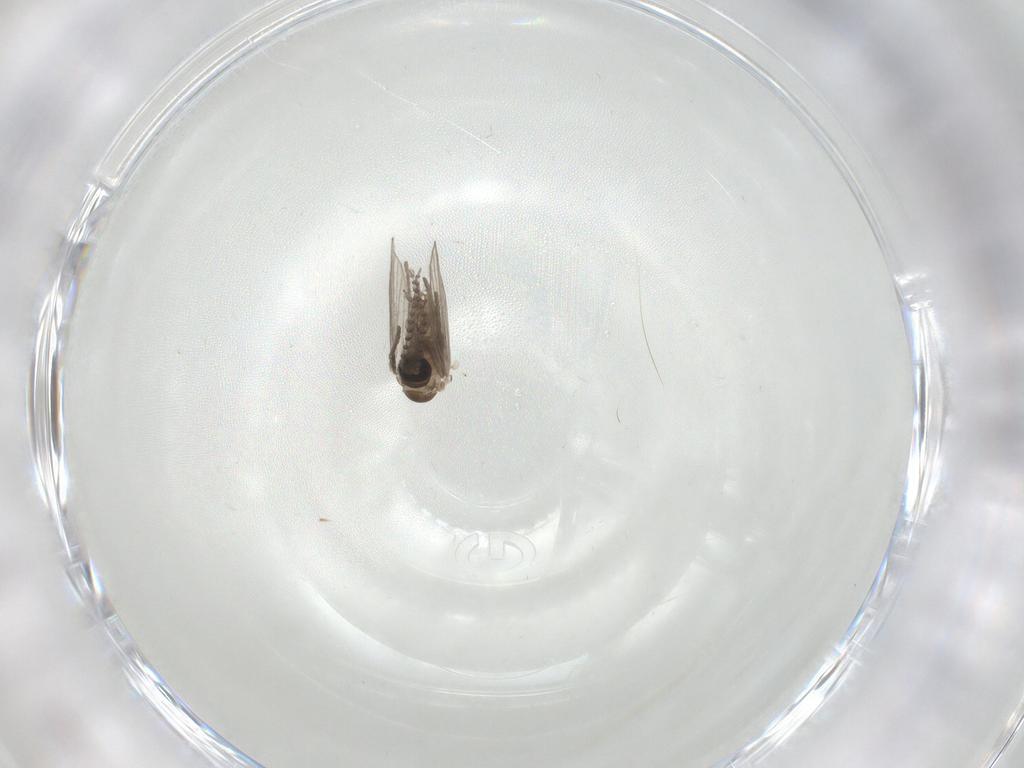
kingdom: Animalia
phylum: Arthropoda
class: Insecta
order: Diptera
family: Psychodidae
